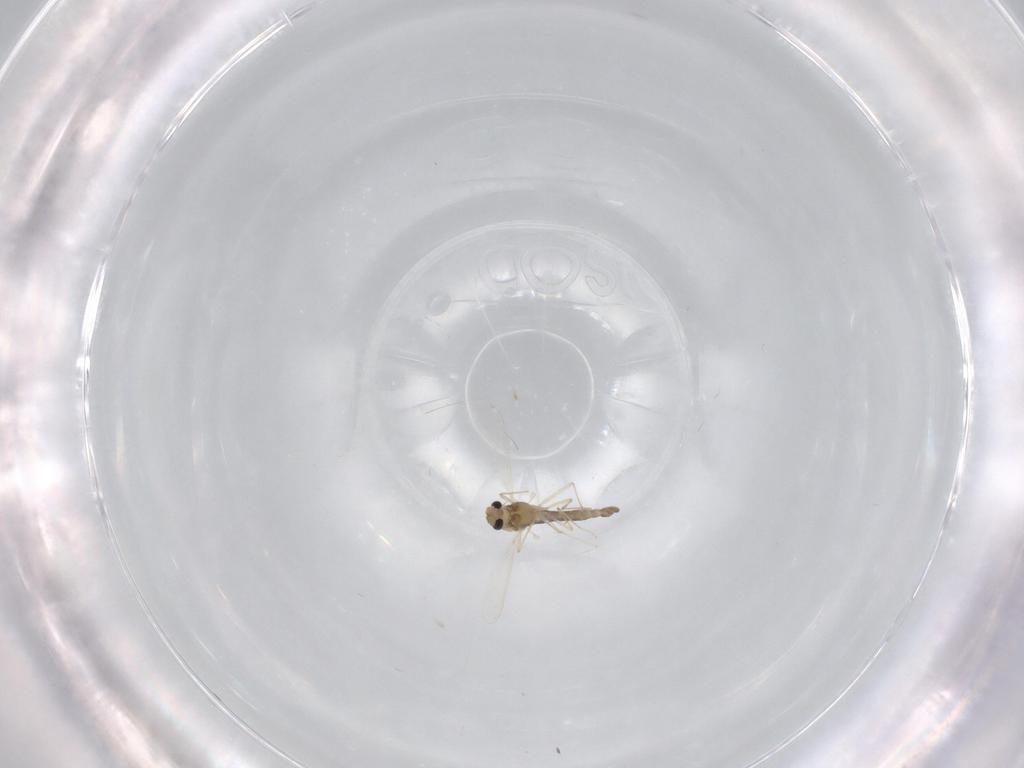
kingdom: Animalia
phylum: Arthropoda
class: Insecta
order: Diptera
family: Chironomidae
